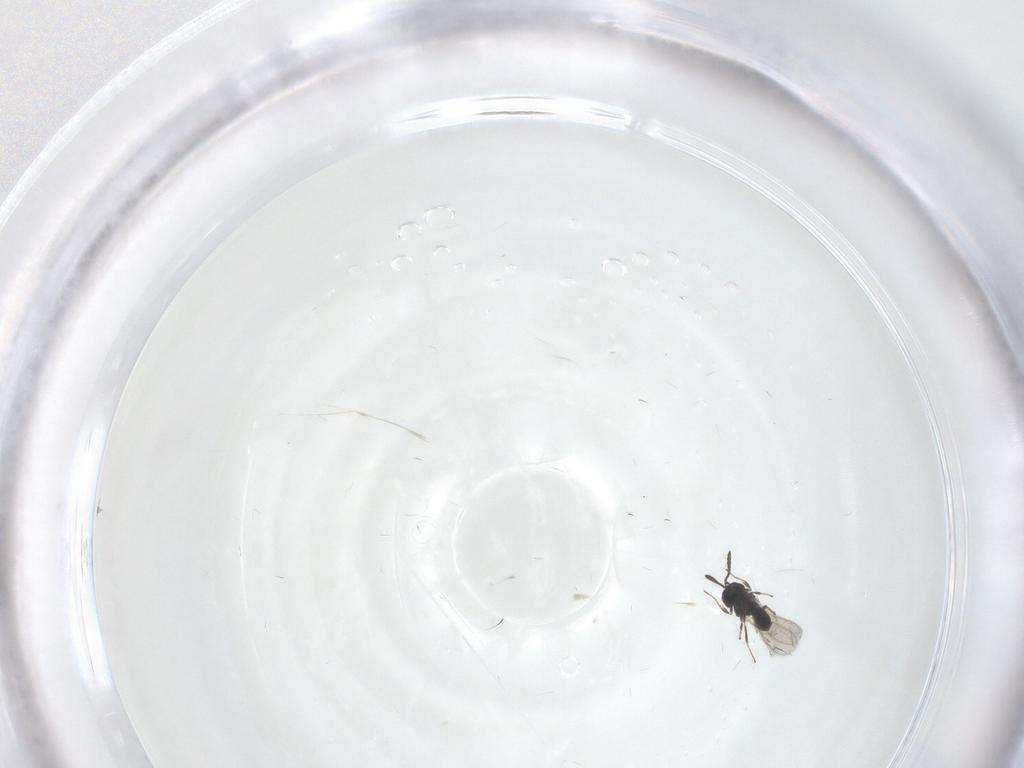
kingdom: Animalia
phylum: Arthropoda
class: Insecta
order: Hymenoptera
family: Scelionidae
